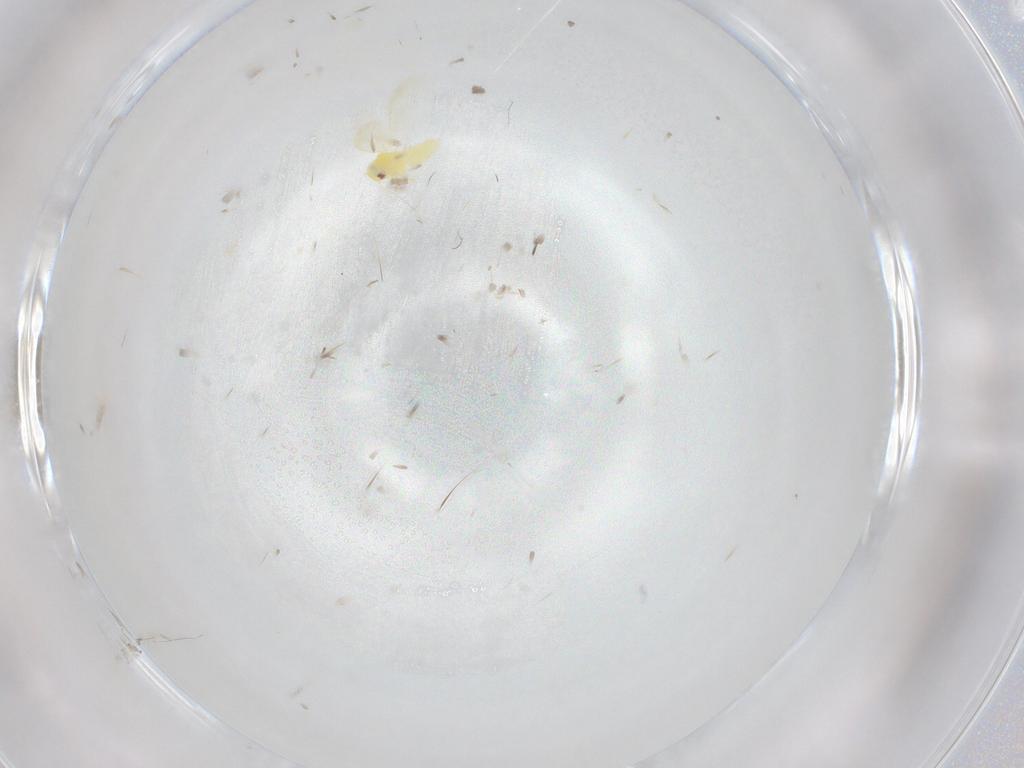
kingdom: Animalia
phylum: Arthropoda
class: Insecta
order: Hemiptera
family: Aleyrodidae
